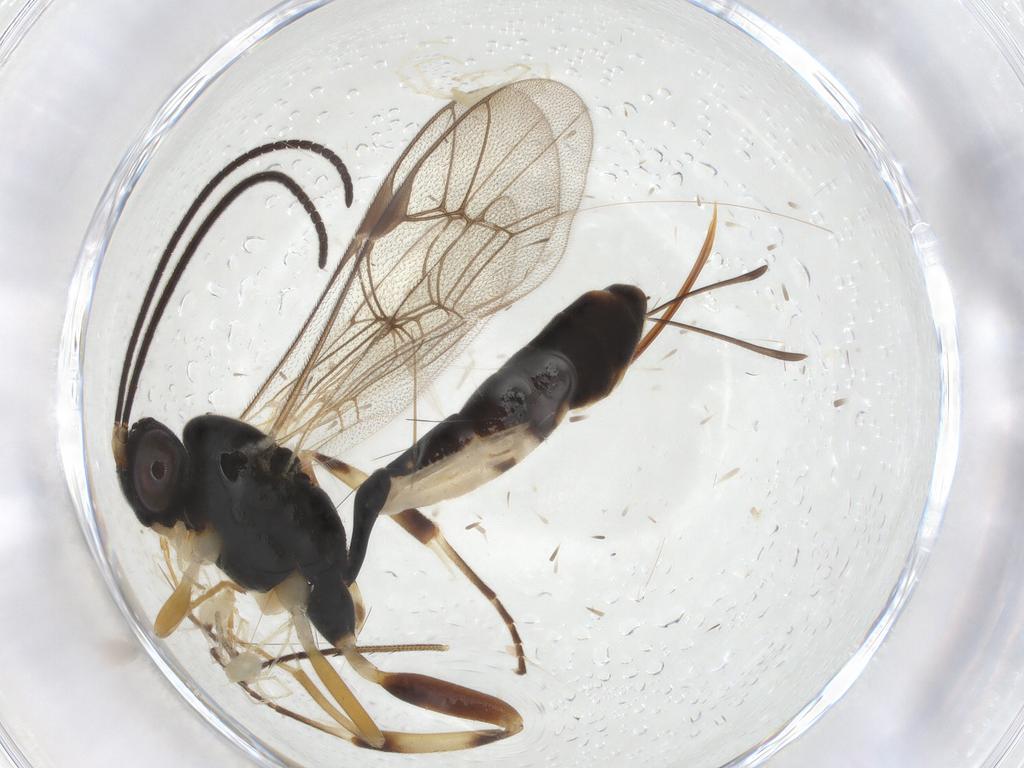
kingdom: Animalia
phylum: Arthropoda
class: Insecta
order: Hymenoptera
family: Ichneumonidae
